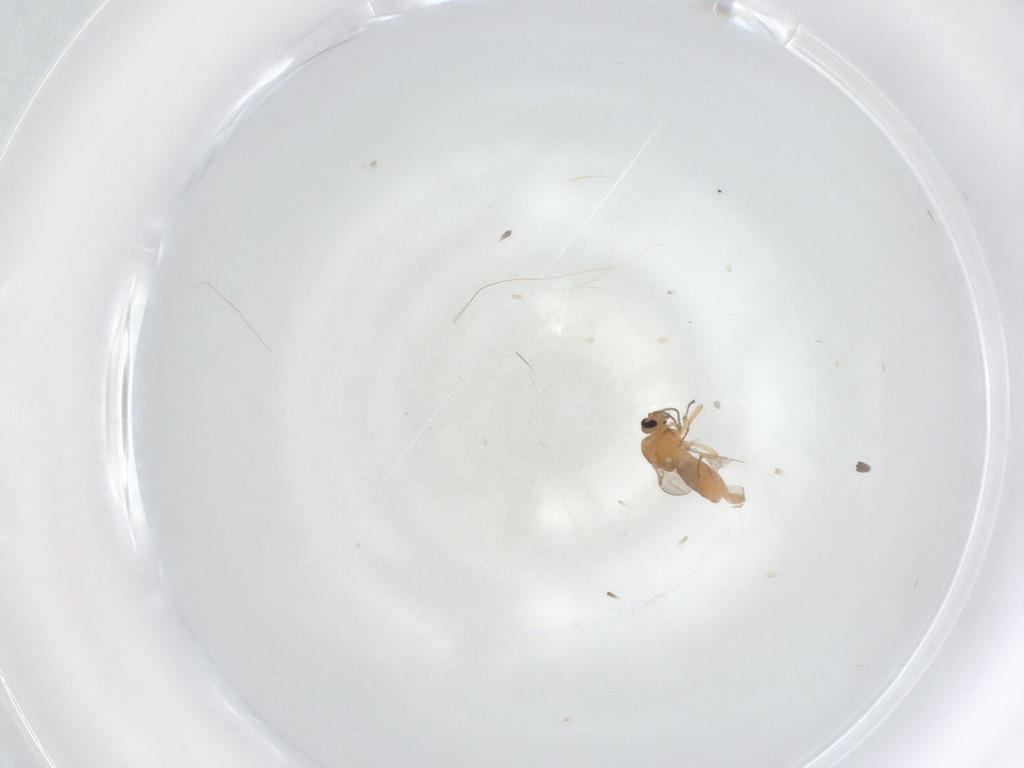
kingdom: Animalia
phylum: Arthropoda
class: Insecta
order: Diptera
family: Ceratopogonidae
